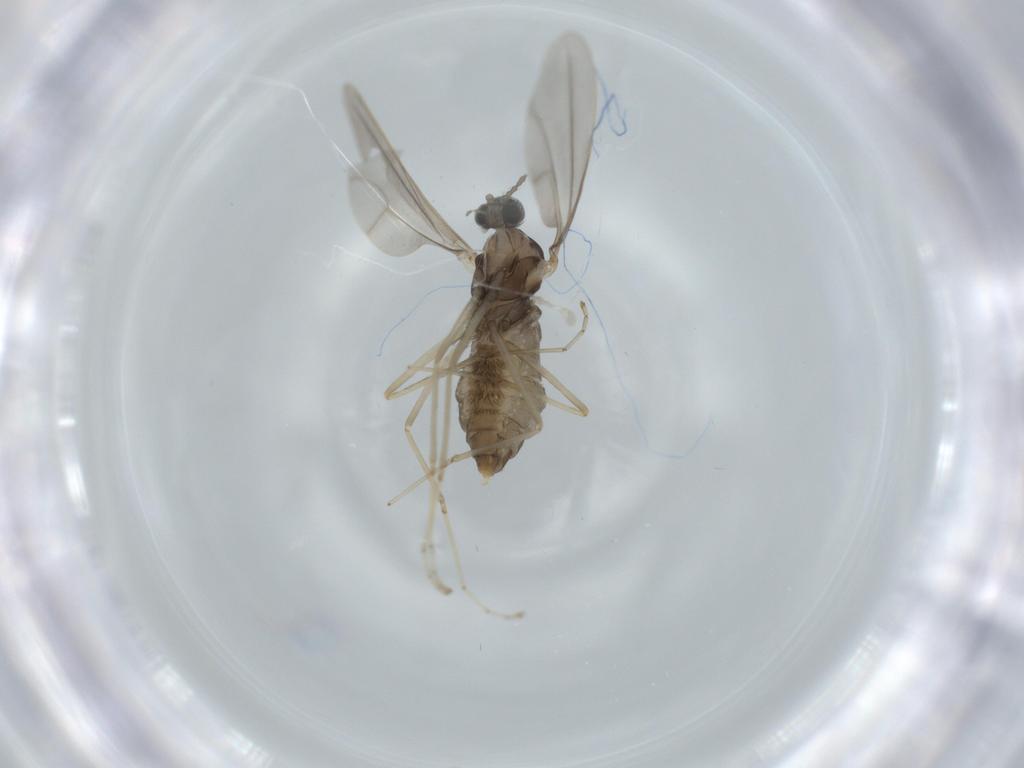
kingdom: Animalia
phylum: Arthropoda
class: Insecta
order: Diptera
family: Cecidomyiidae
